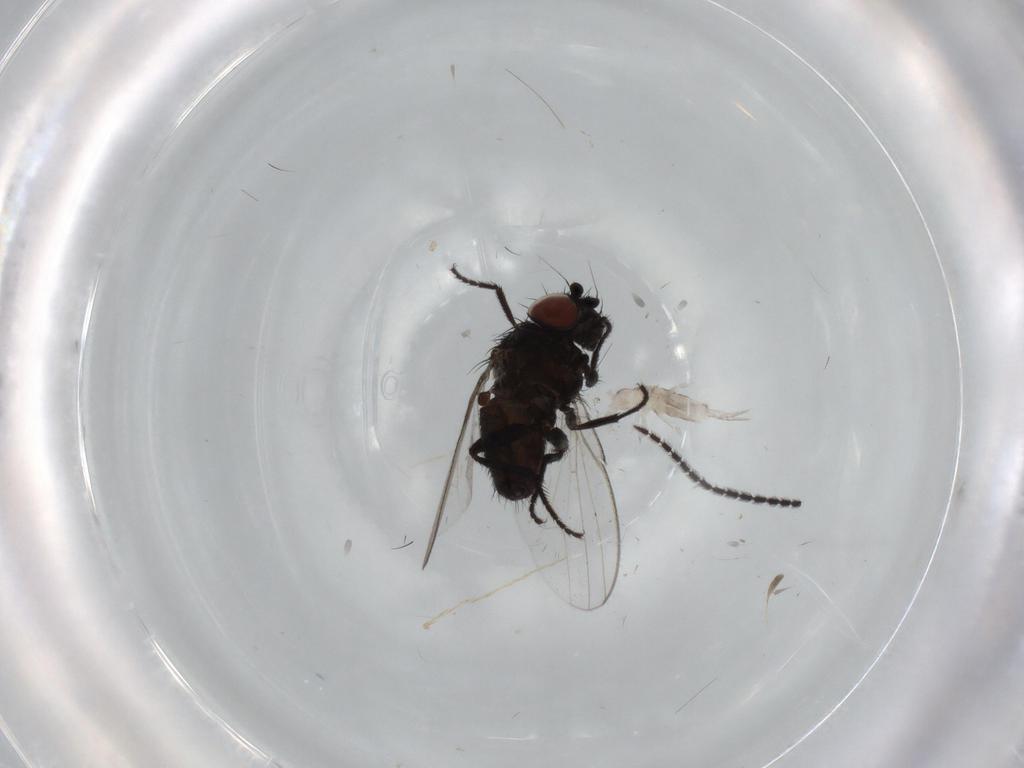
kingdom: Animalia
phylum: Arthropoda
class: Collembola
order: Entomobryomorpha
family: Entomobryidae
